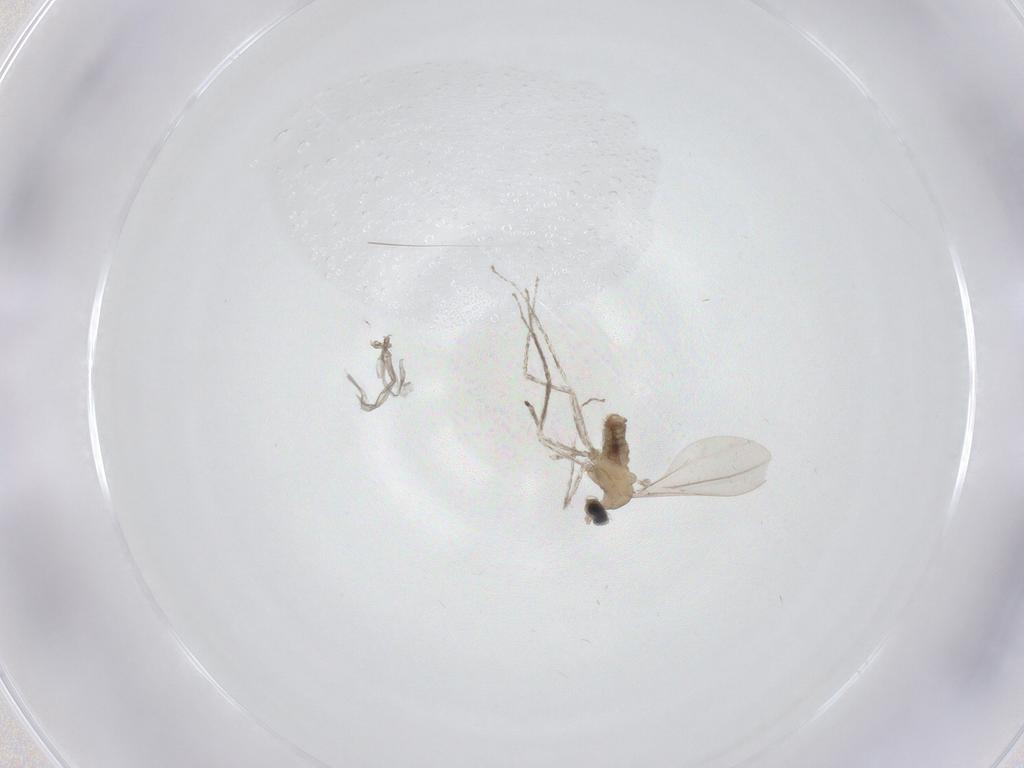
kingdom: Animalia
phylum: Arthropoda
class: Insecta
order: Diptera
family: Cecidomyiidae
